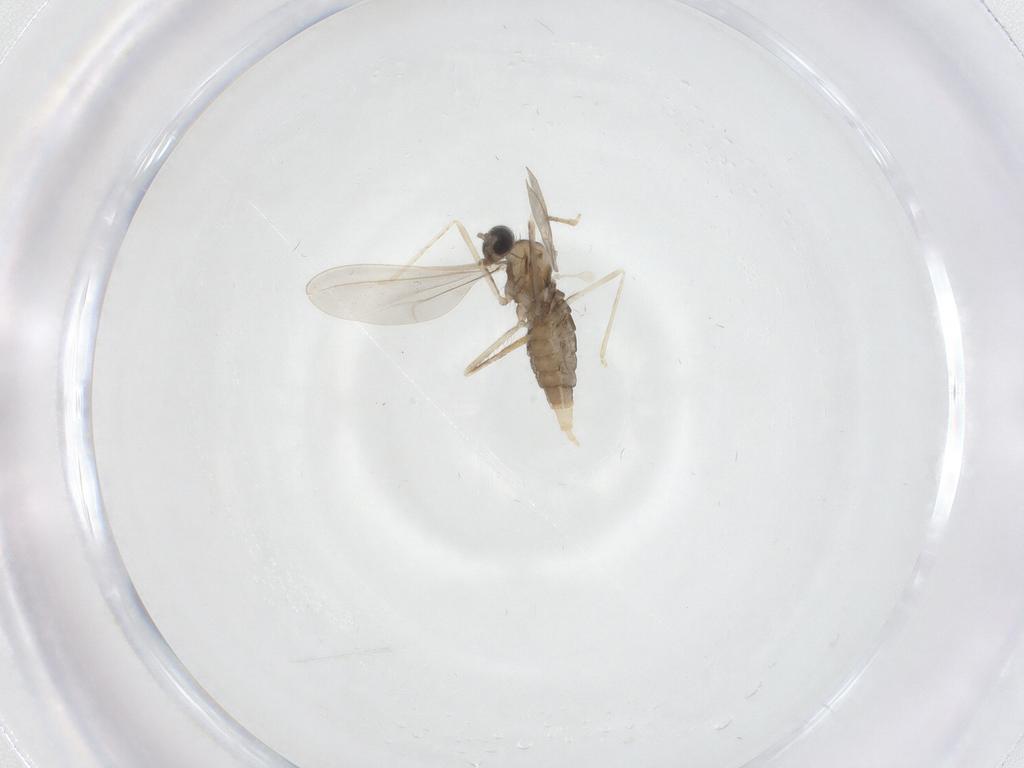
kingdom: Animalia
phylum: Arthropoda
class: Insecta
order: Diptera
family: Cecidomyiidae
